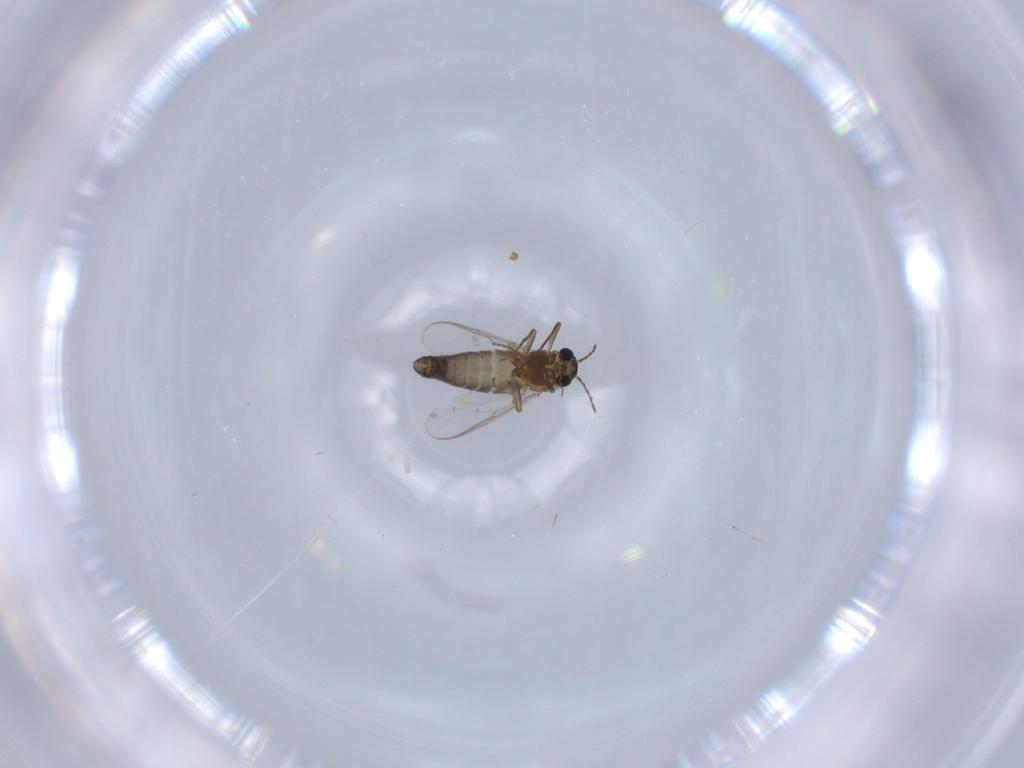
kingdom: Animalia
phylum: Arthropoda
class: Insecta
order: Diptera
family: Chironomidae
